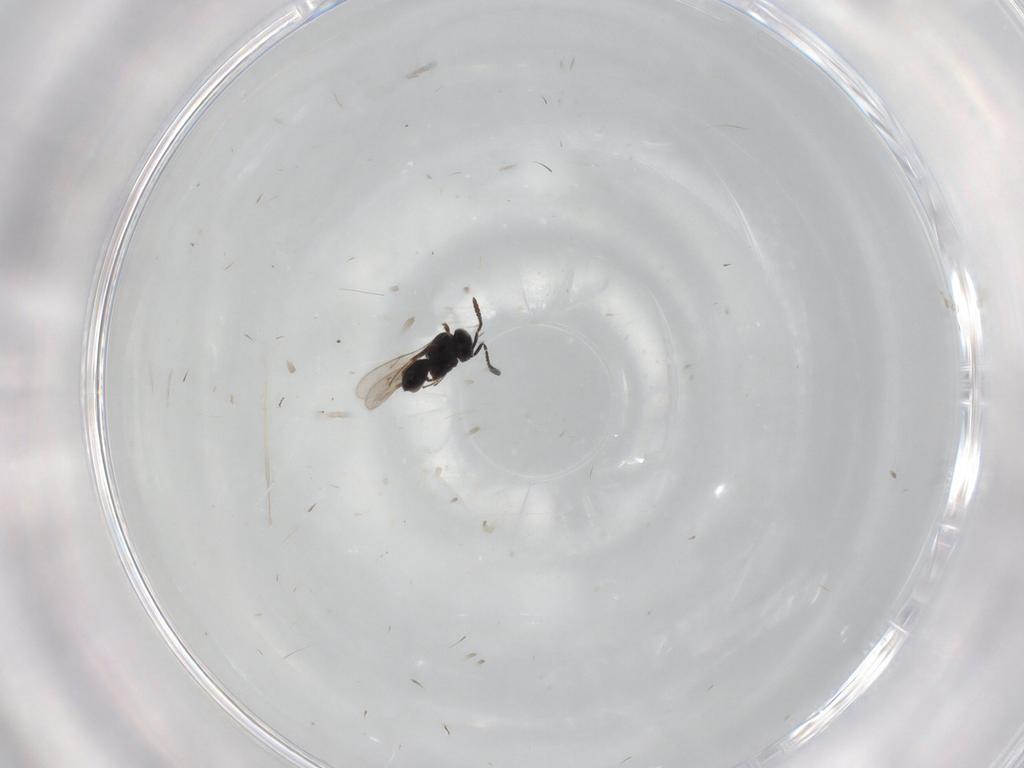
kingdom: Animalia
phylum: Arthropoda
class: Insecta
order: Hymenoptera
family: Scelionidae
